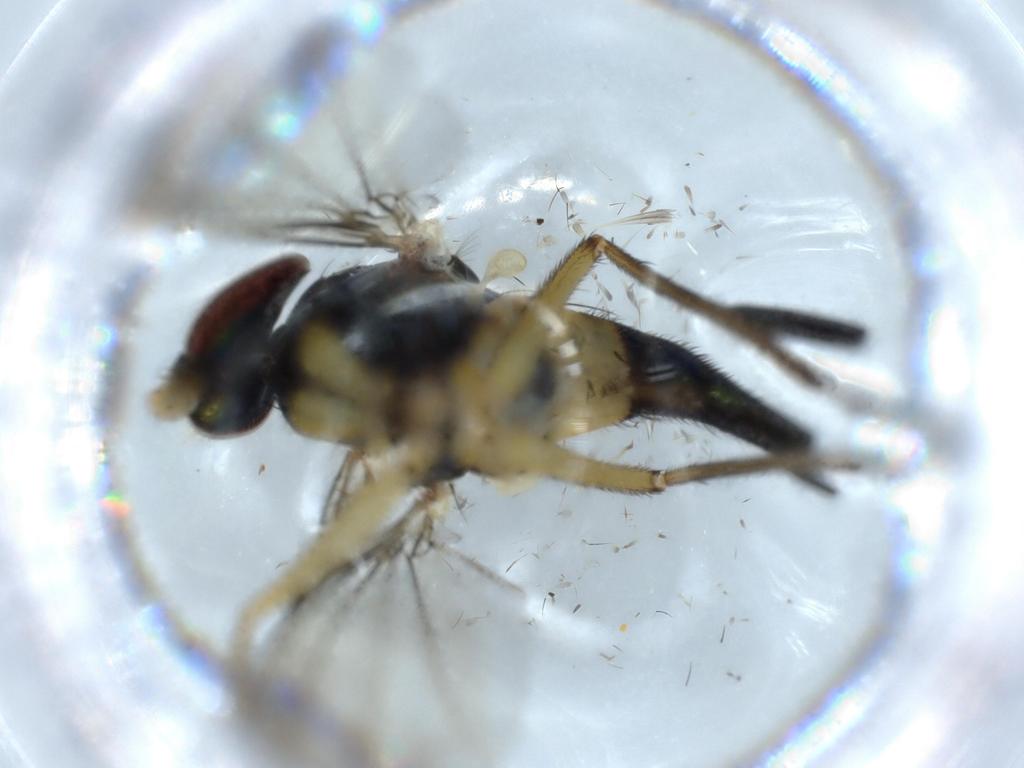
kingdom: Animalia
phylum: Arthropoda
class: Insecta
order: Diptera
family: Dolichopodidae
